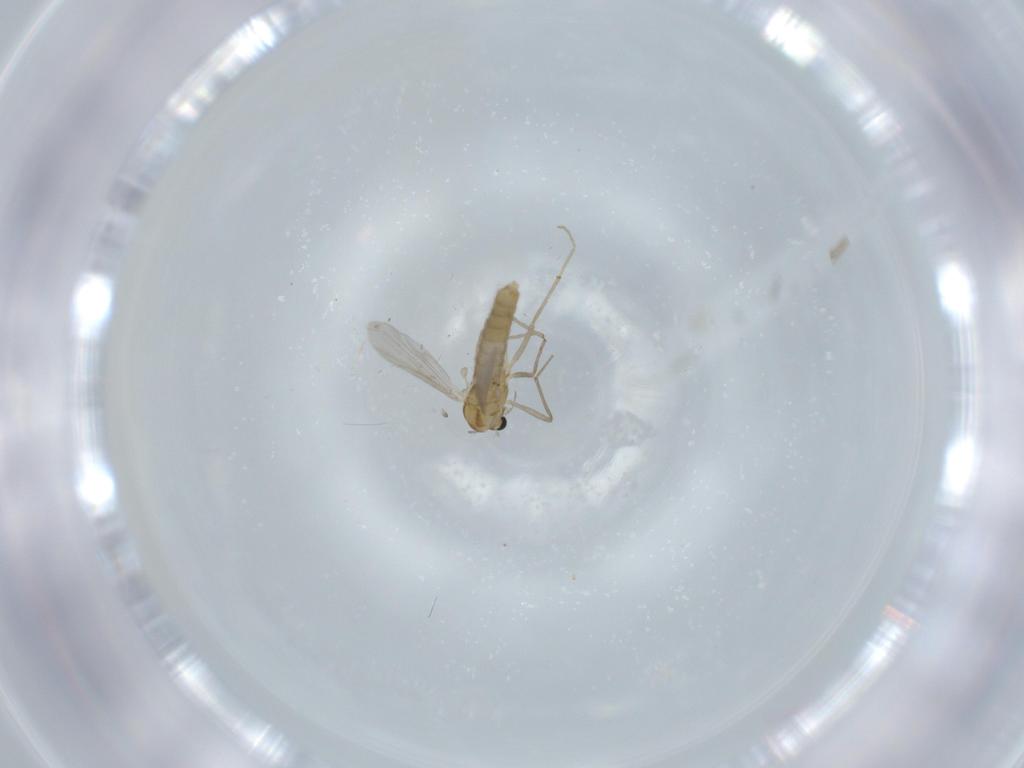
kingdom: Animalia
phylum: Arthropoda
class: Insecta
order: Diptera
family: Chironomidae
